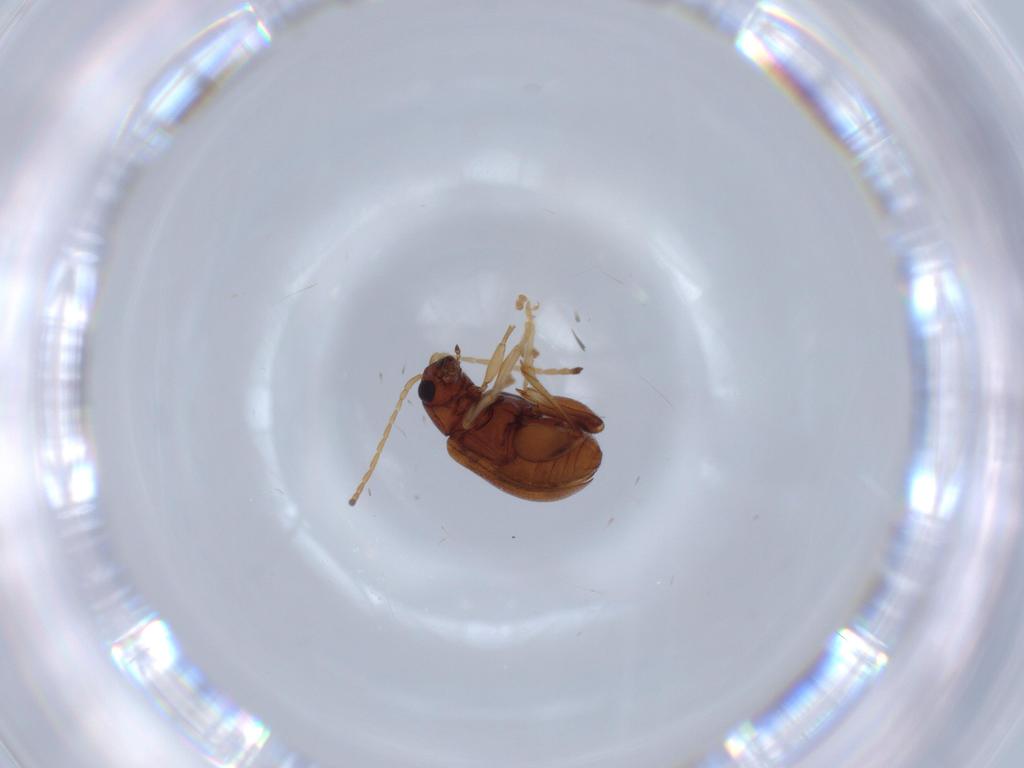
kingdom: Animalia
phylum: Arthropoda
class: Insecta
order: Coleoptera
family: Chrysomelidae
